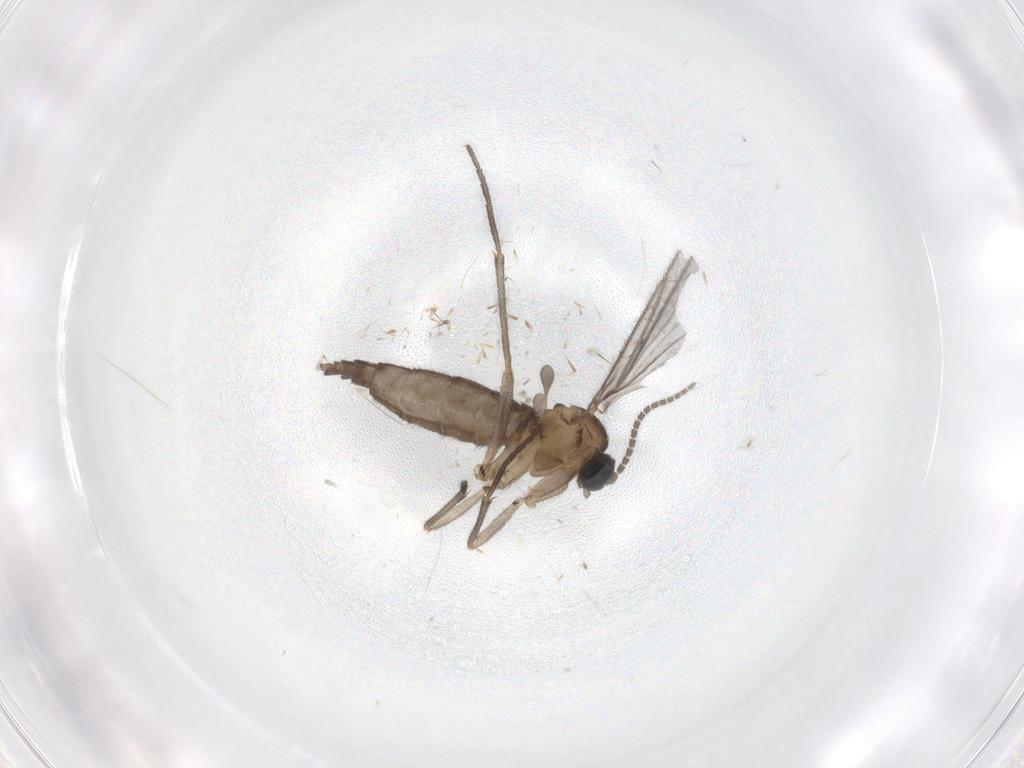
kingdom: Animalia
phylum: Arthropoda
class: Insecta
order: Diptera
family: Sciaridae
